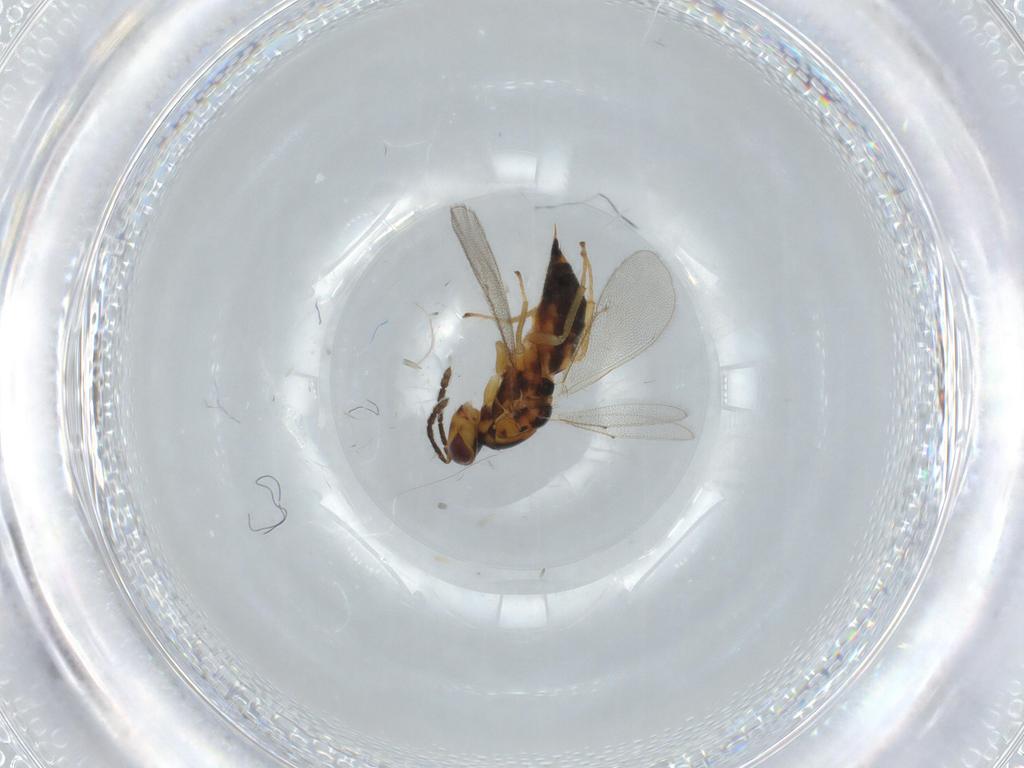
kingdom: Animalia
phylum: Arthropoda
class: Insecta
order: Hymenoptera
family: Eulophidae
